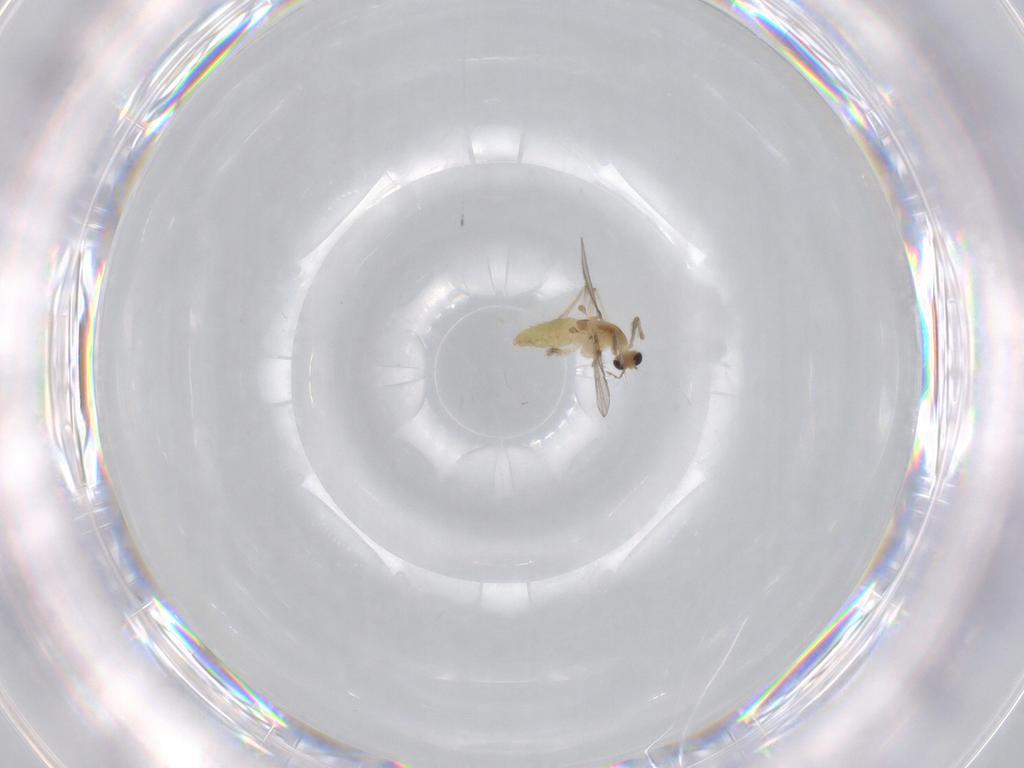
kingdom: Animalia
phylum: Arthropoda
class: Insecta
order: Diptera
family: Chironomidae
